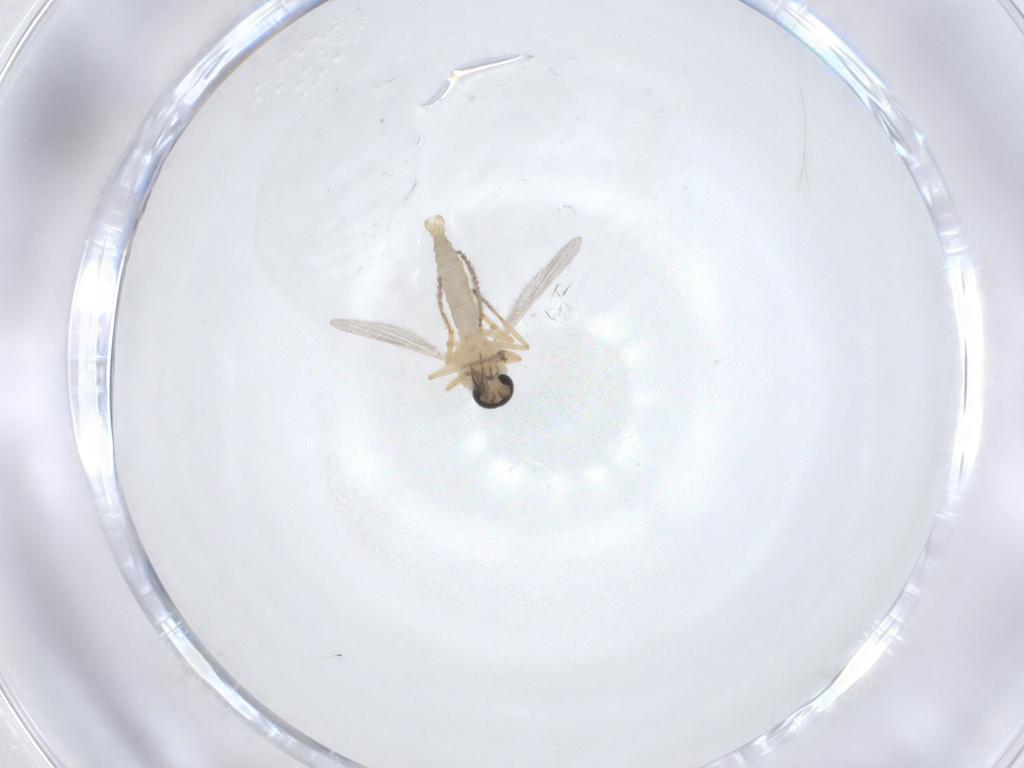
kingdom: Animalia
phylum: Arthropoda
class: Insecta
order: Diptera
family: Ceratopogonidae
